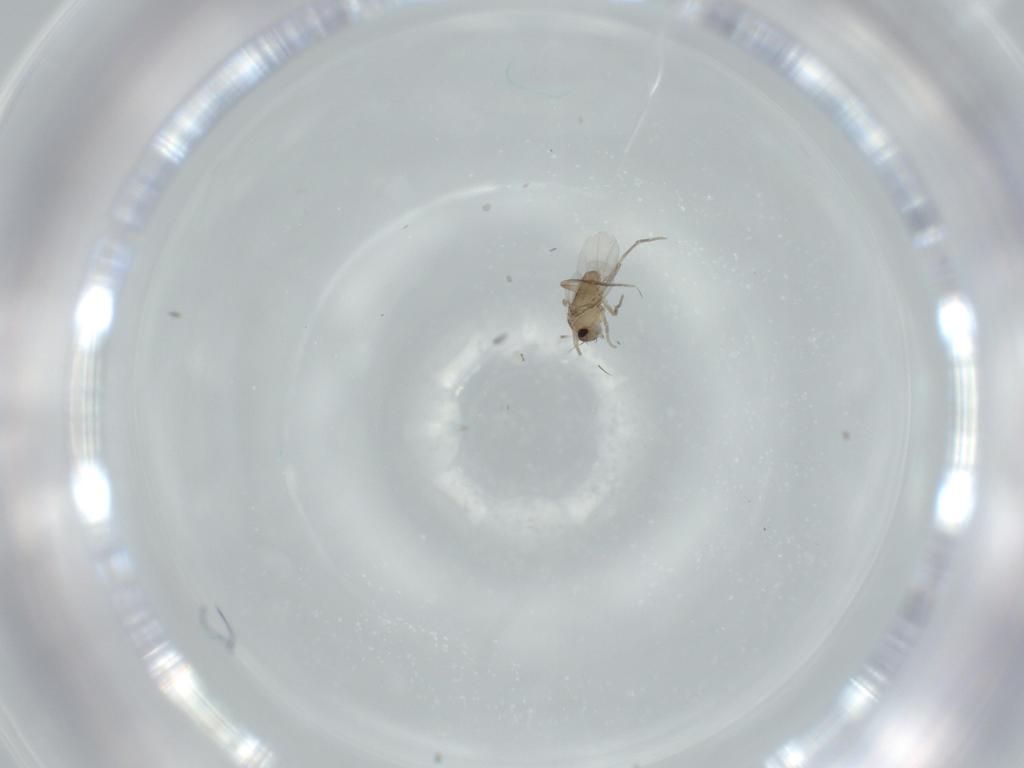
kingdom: Animalia
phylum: Arthropoda
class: Insecta
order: Diptera
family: Phoridae
